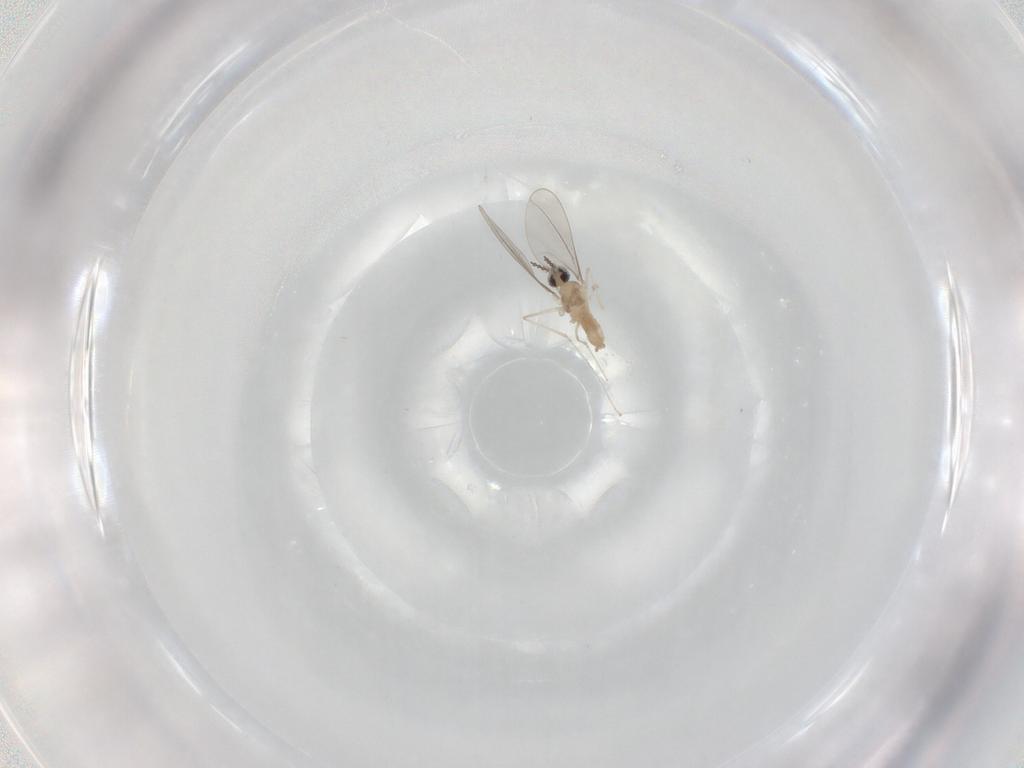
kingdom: Animalia
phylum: Arthropoda
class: Insecta
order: Diptera
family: Cecidomyiidae
